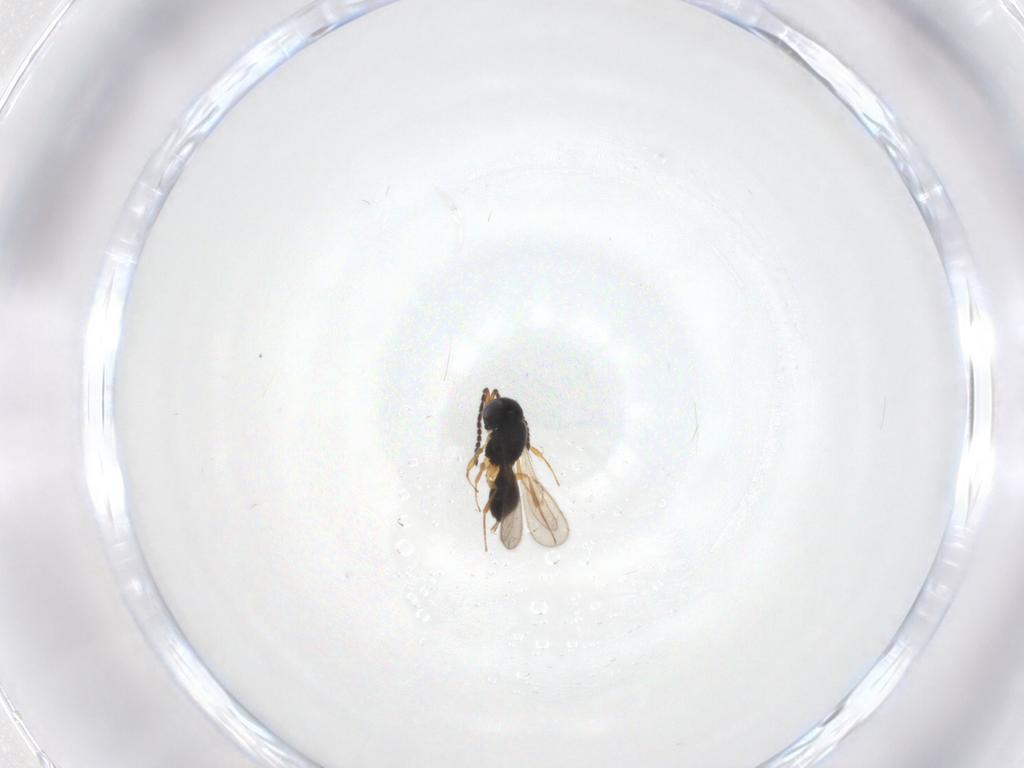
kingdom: Animalia
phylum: Arthropoda
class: Insecta
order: Hymenoptera
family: Scelionidae
